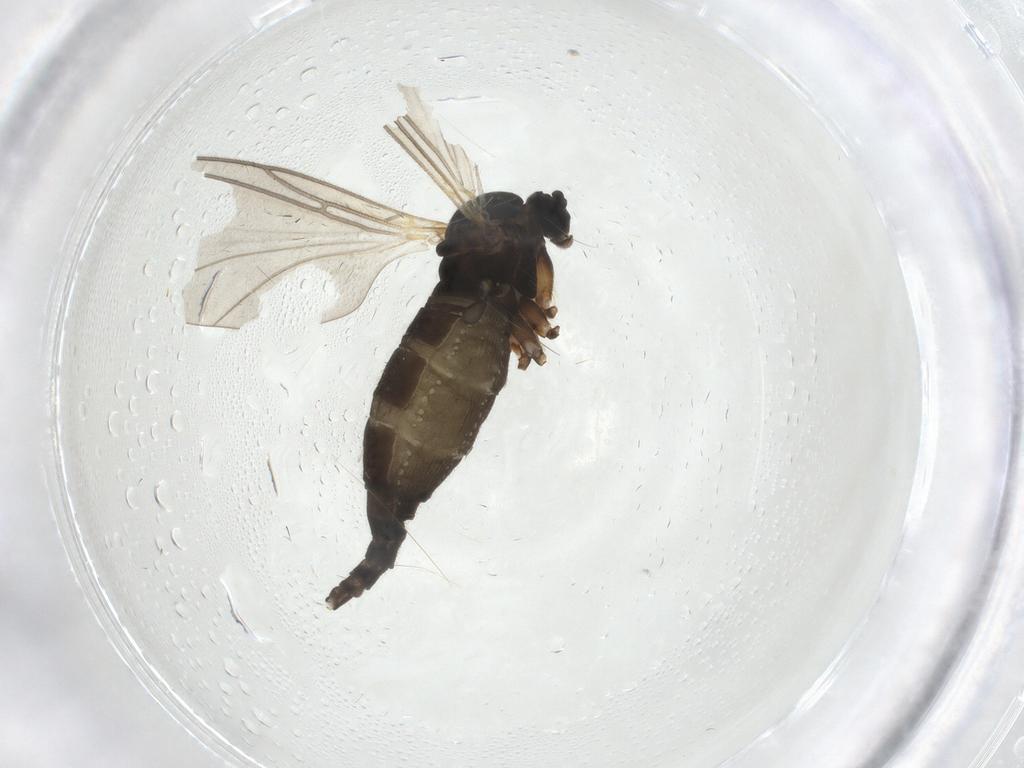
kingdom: Animalia
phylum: Arthropoda
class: Insecta
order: Diptera
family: Sciaridae
